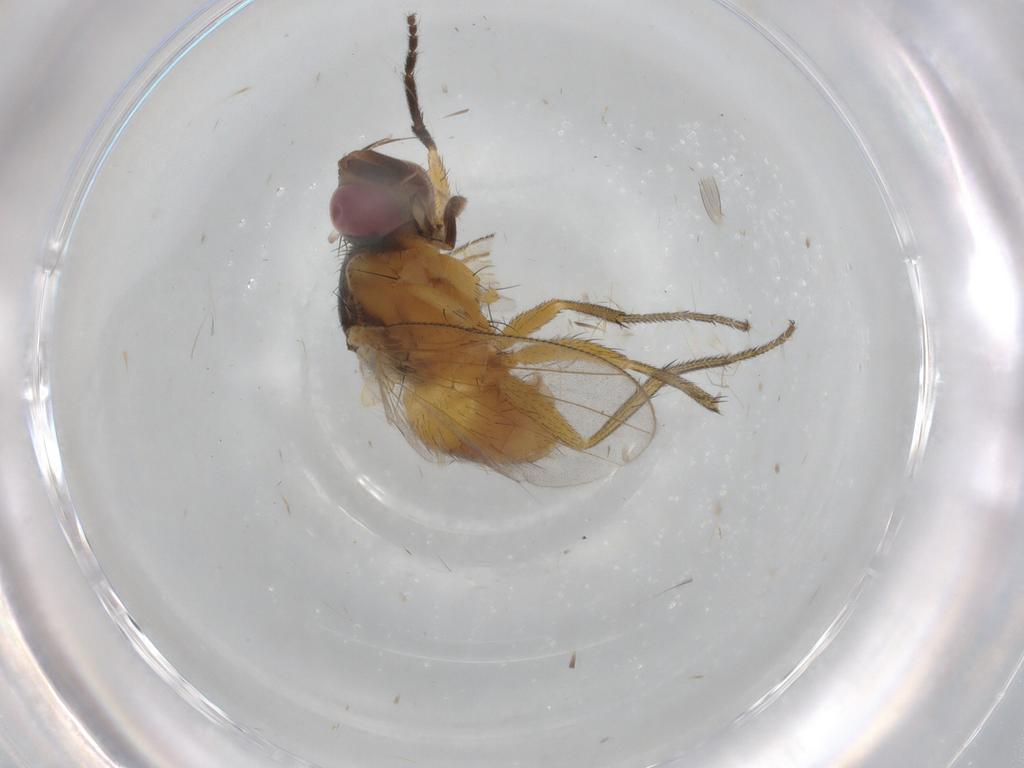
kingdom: Animalia
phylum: Arthropoda
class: Insecta
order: Diptera
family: Muscidae
